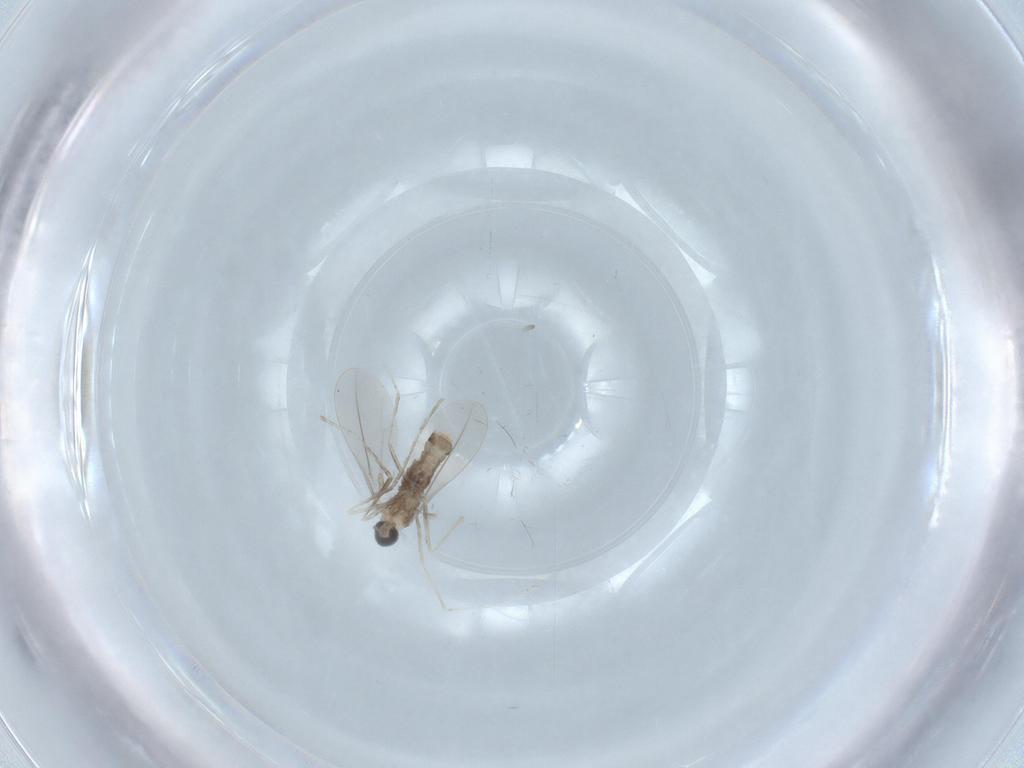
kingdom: Animalia
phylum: Arthropoda
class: Insecta
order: Diptera
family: Cecidomyiidae
